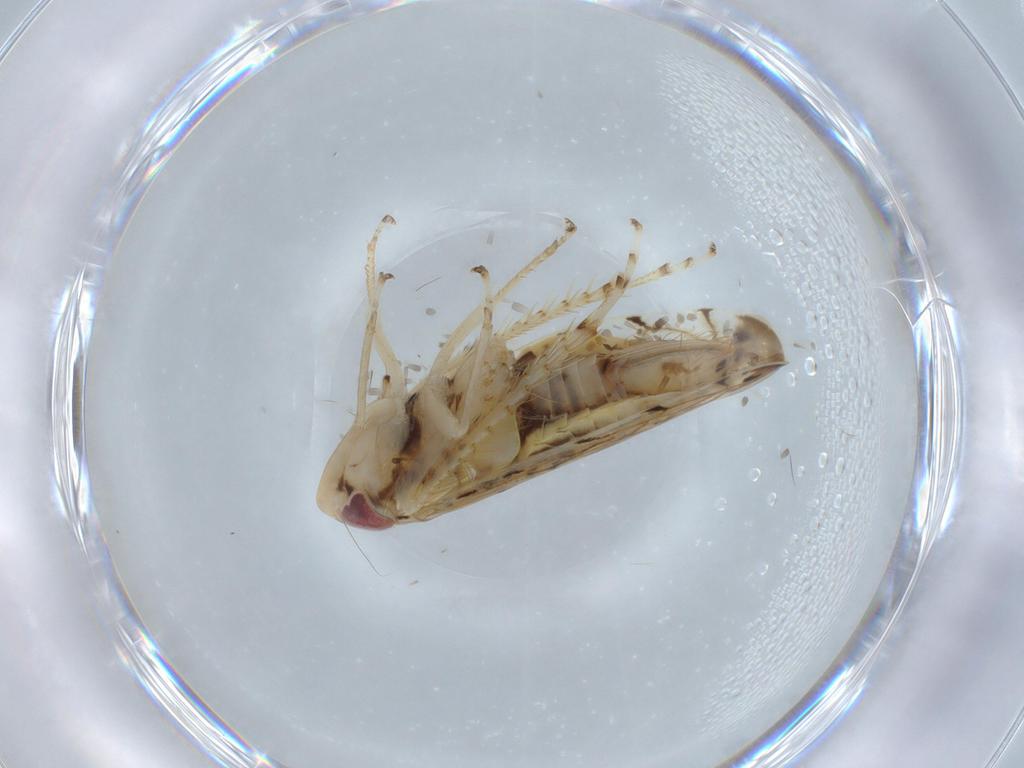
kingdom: Animalia
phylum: Arthropoda
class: Insecta
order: Hemiptera
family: Cicadellidae
